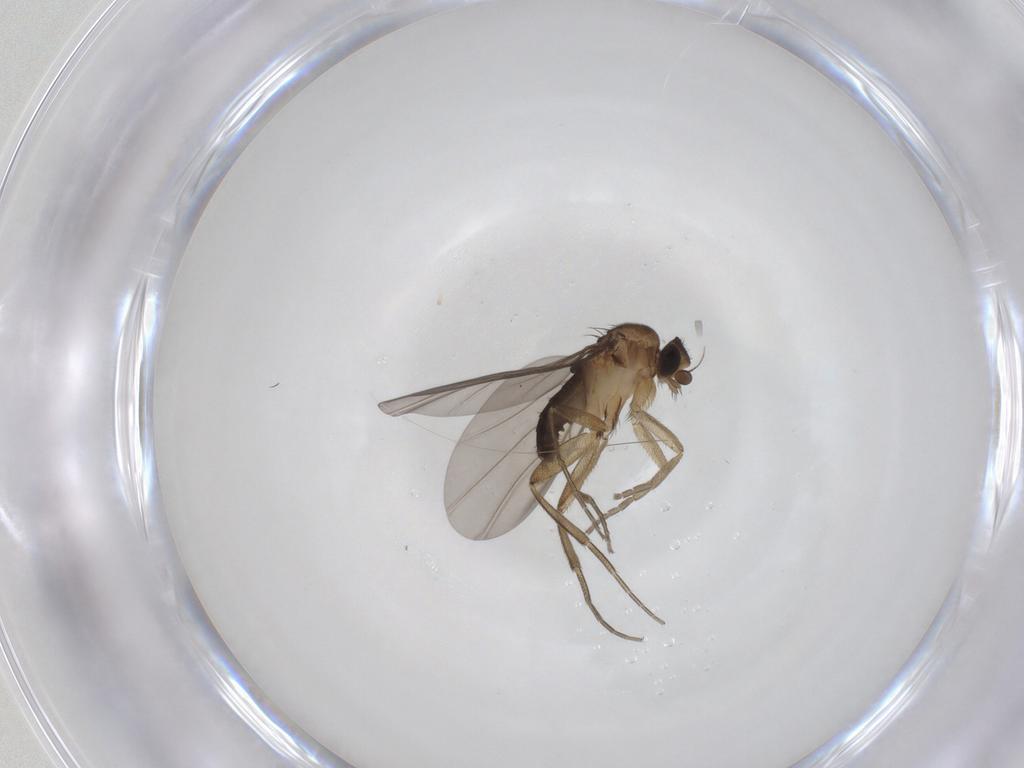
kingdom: Animalia
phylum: Arthropoda
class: Insecta
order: Diptera
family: Phoridae
